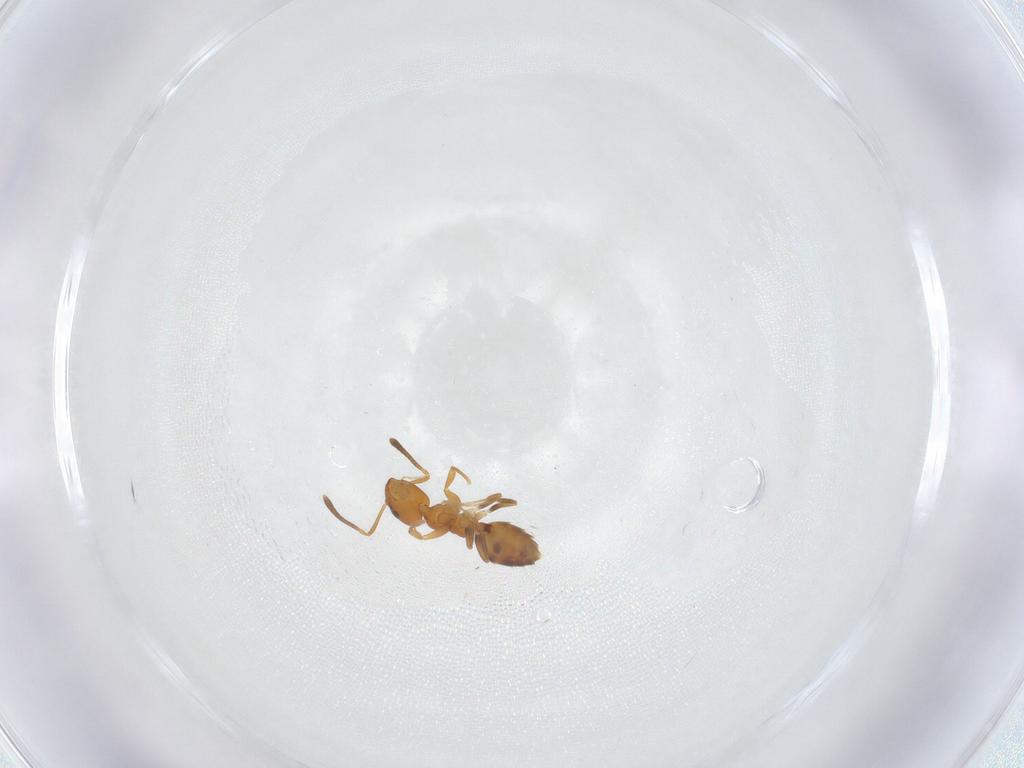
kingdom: Animalia
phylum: Arthropoda
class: Insecta
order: Hymenoptera
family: Formicidae
